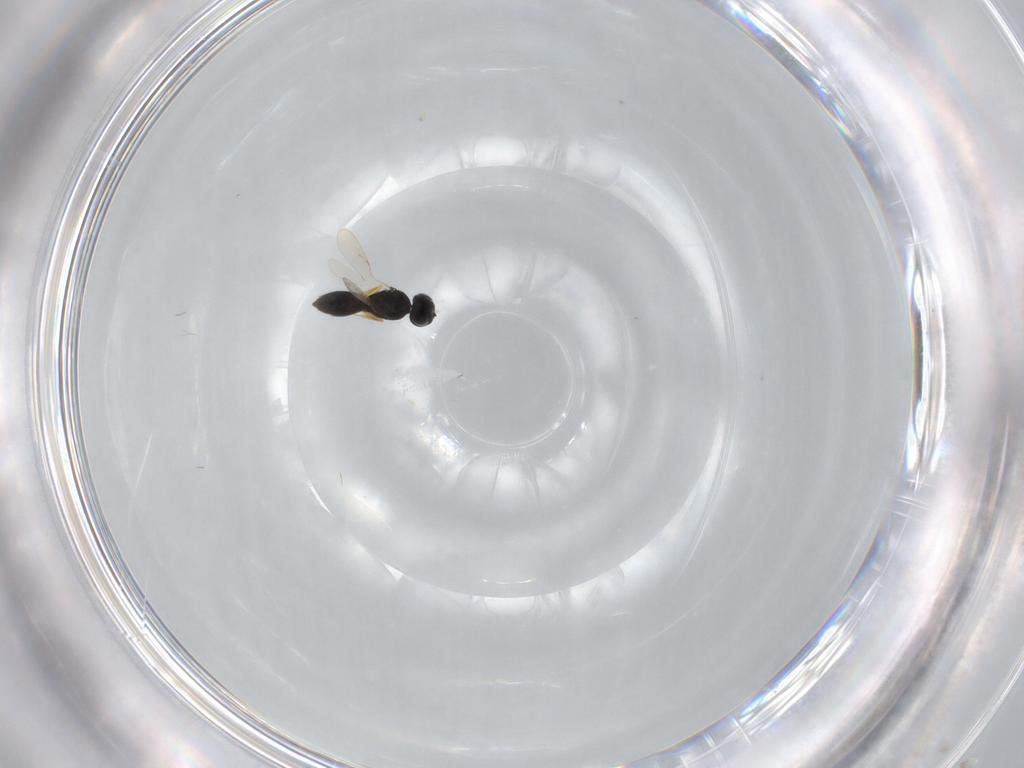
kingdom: Animalia
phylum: Arthropoda
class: Insecta
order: Hymenoptera
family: Scelionidae
